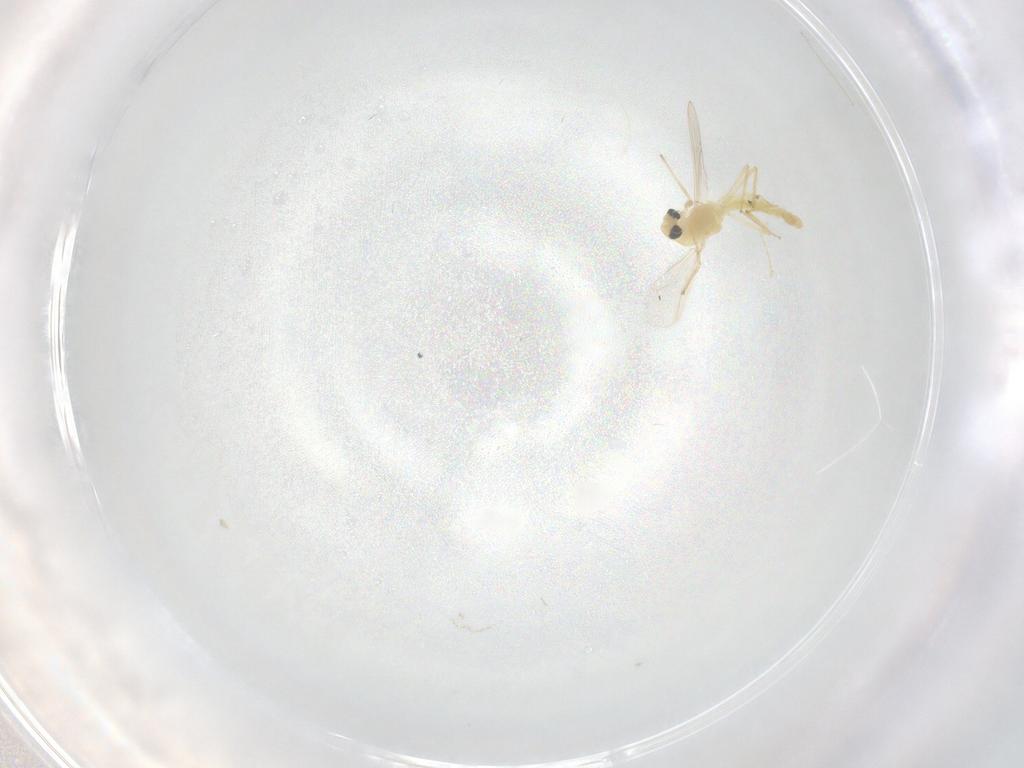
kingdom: Animalia
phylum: Arthropoda
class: Insecta
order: Diptera
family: Chironomidae
